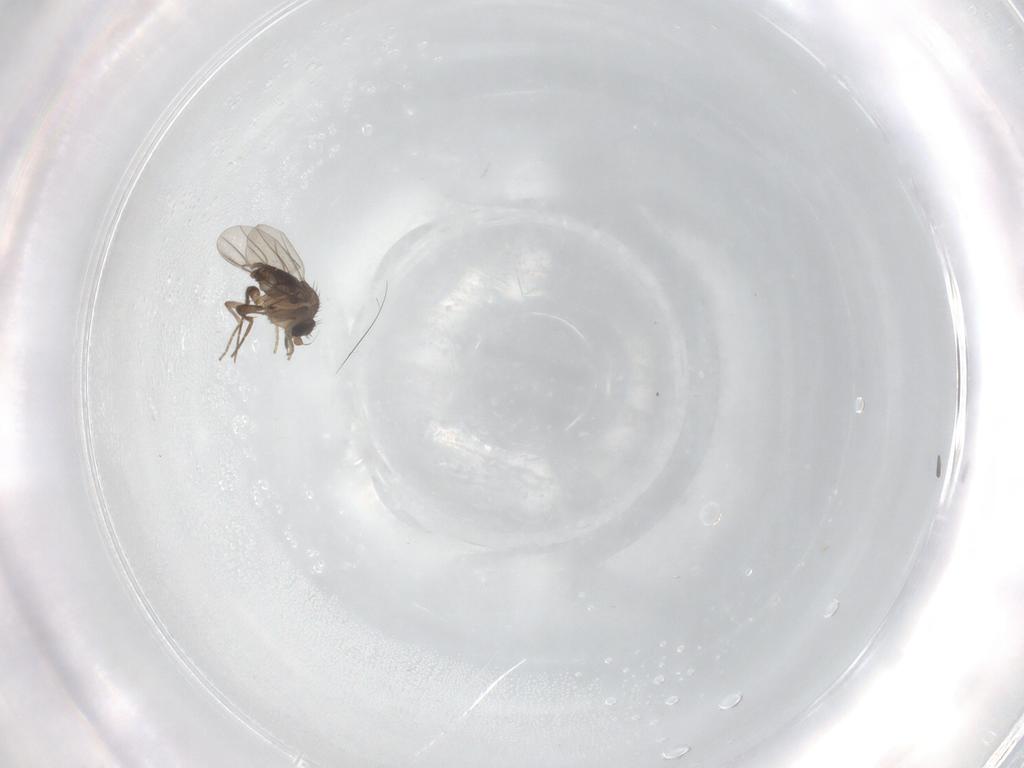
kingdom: Animalia
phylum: Arthropoda
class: Insecta
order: Diptera
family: Phoridae
